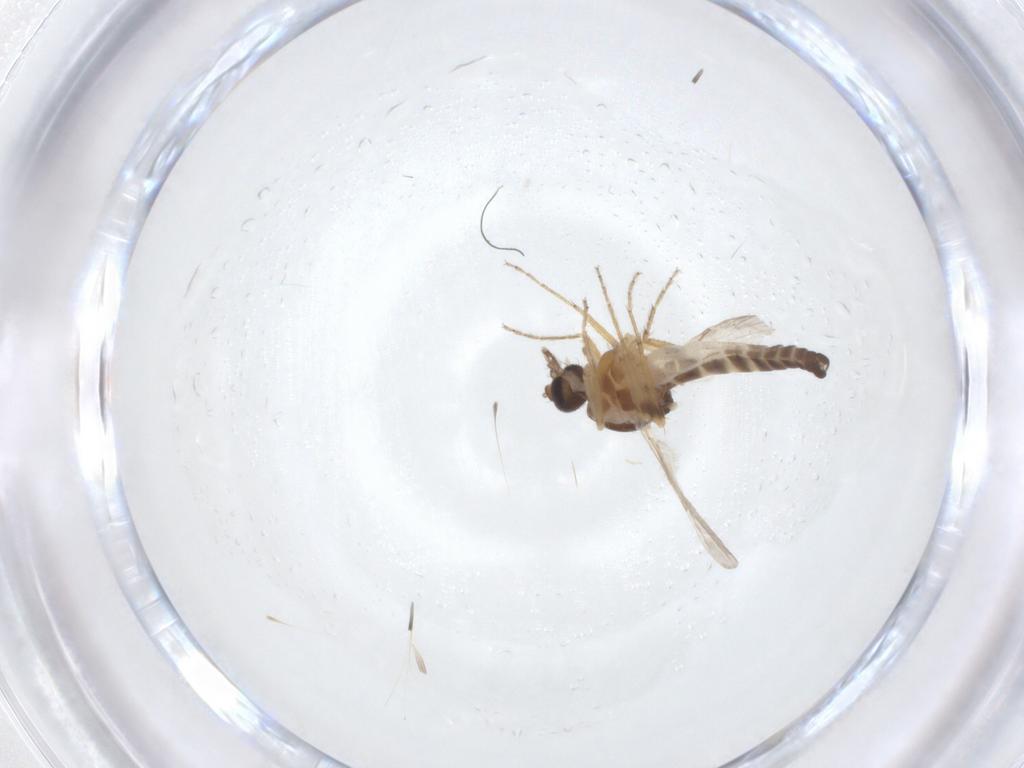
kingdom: Animalia
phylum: Arthropoda
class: Insecta
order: Diptera
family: Ceratopogonidae
